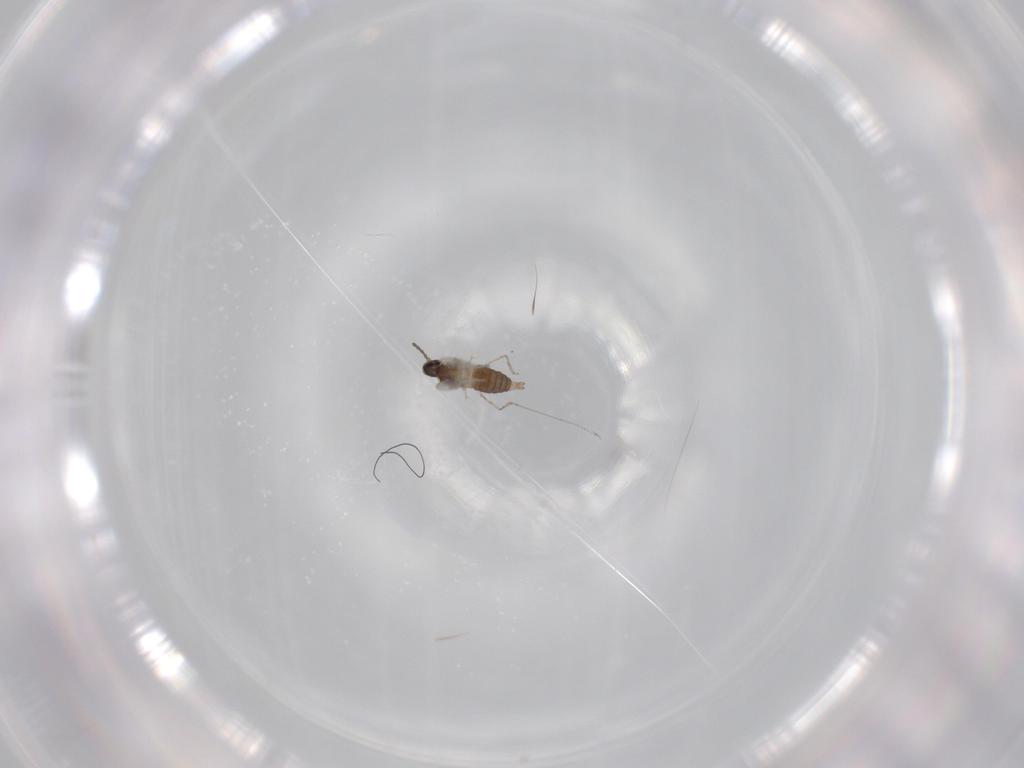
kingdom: Animalia
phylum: Arthropoda
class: Insecta
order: Diptera
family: Cecidomyiidae
